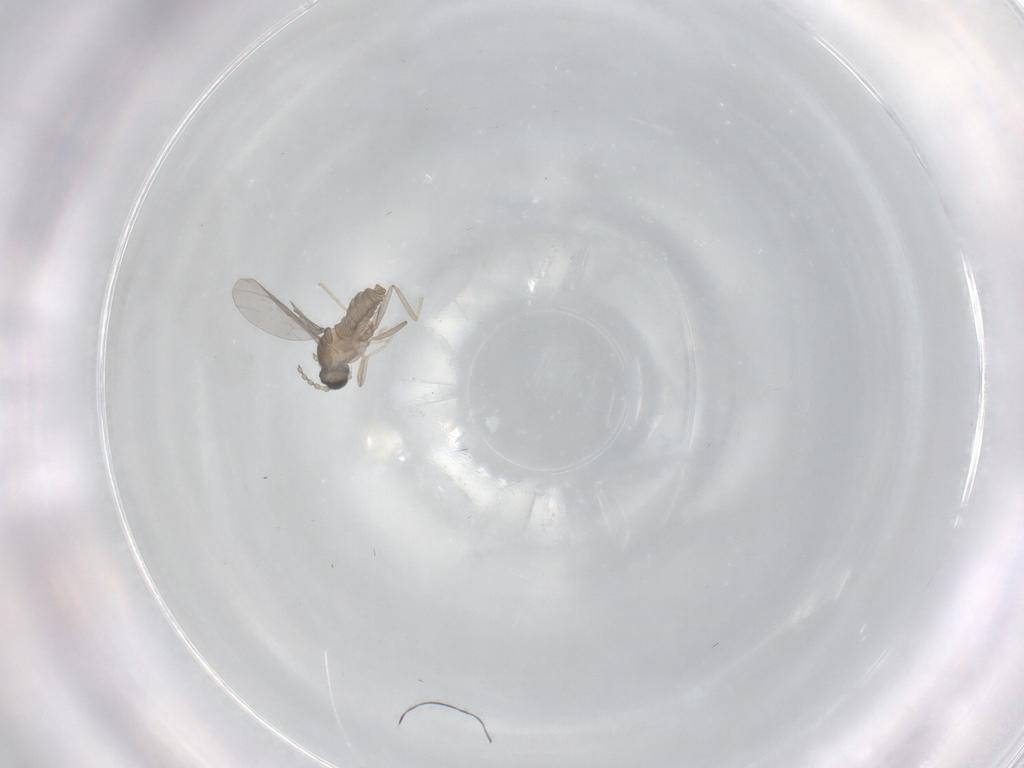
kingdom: Animalia
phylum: Arthropoda
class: Insecta
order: Diptera
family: Cecidomyiidae
